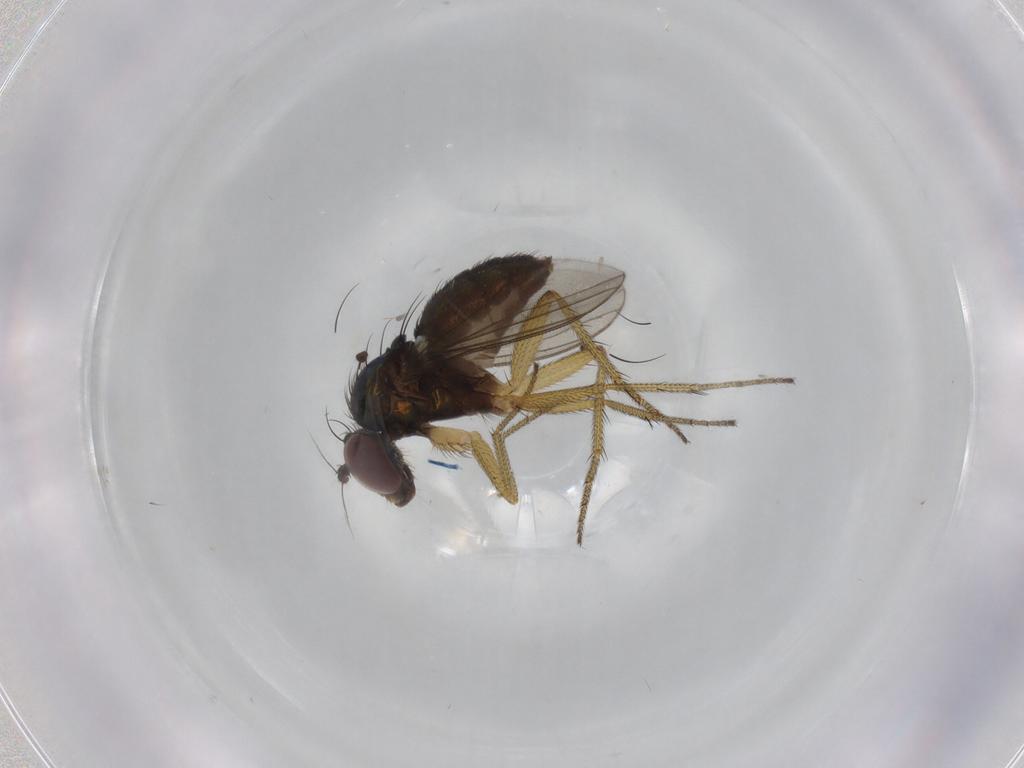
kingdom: Animalia
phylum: Arthropoda
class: Insecta
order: Diptera
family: Dolichopodidae
